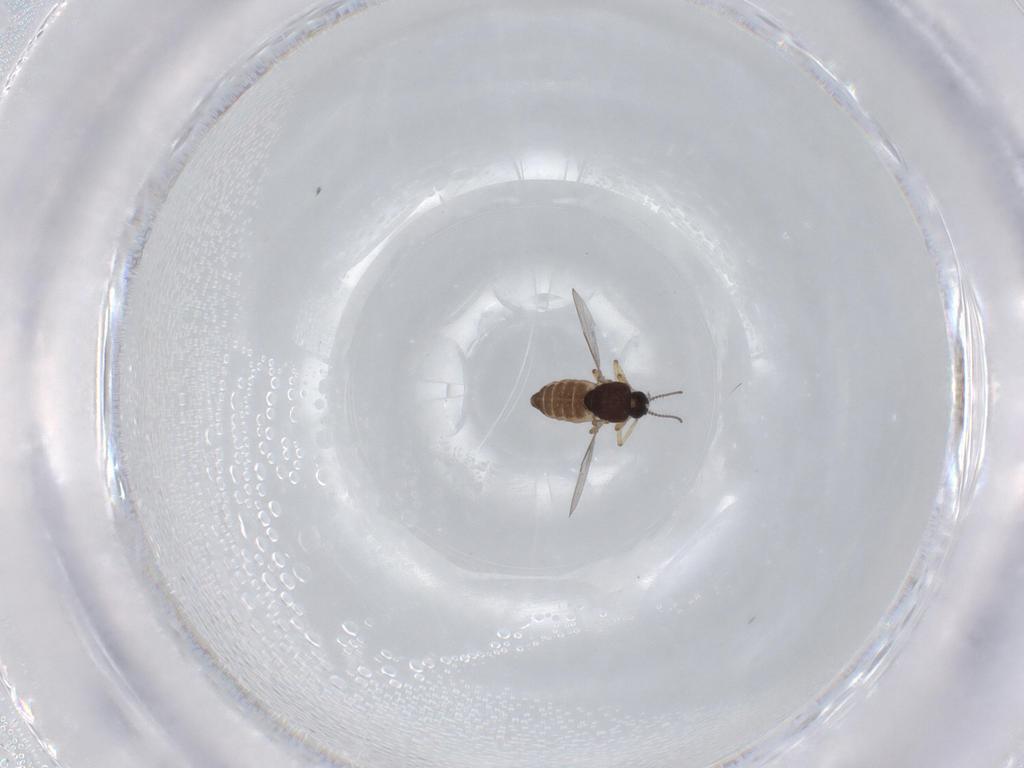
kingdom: Animalia
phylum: Arthropoda
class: Insecta
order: Diptera
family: Ceratopogonidae
